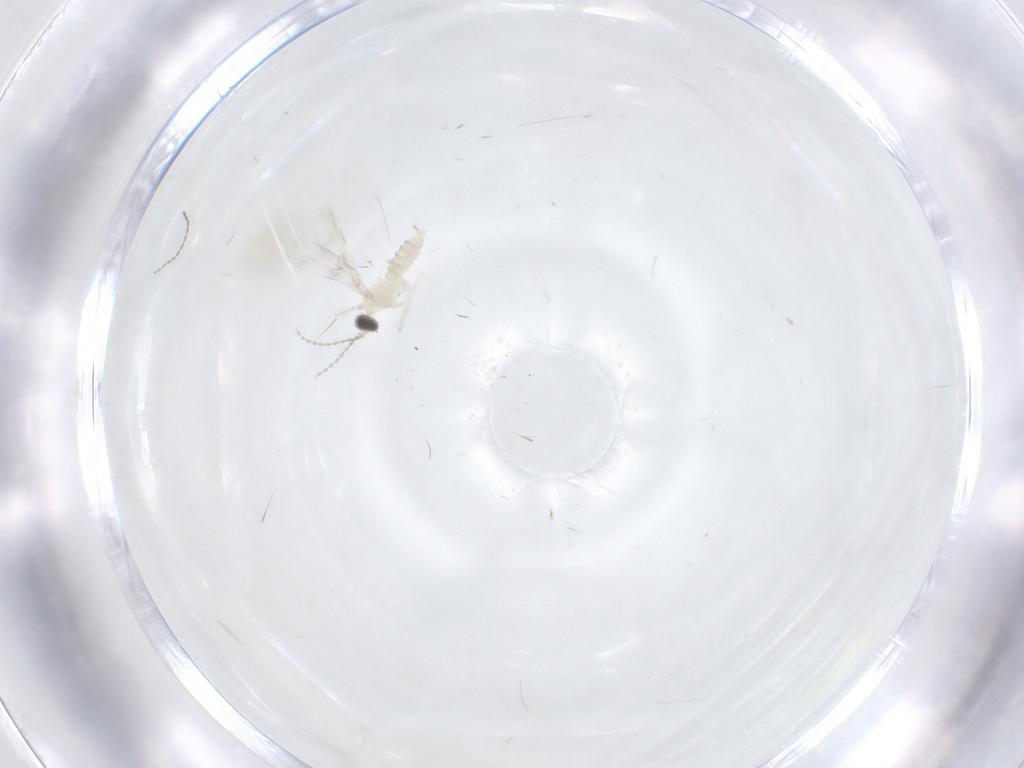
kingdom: Animalia
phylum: Arthropoda
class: Insecta
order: Diptera
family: Cecidomyiidae
